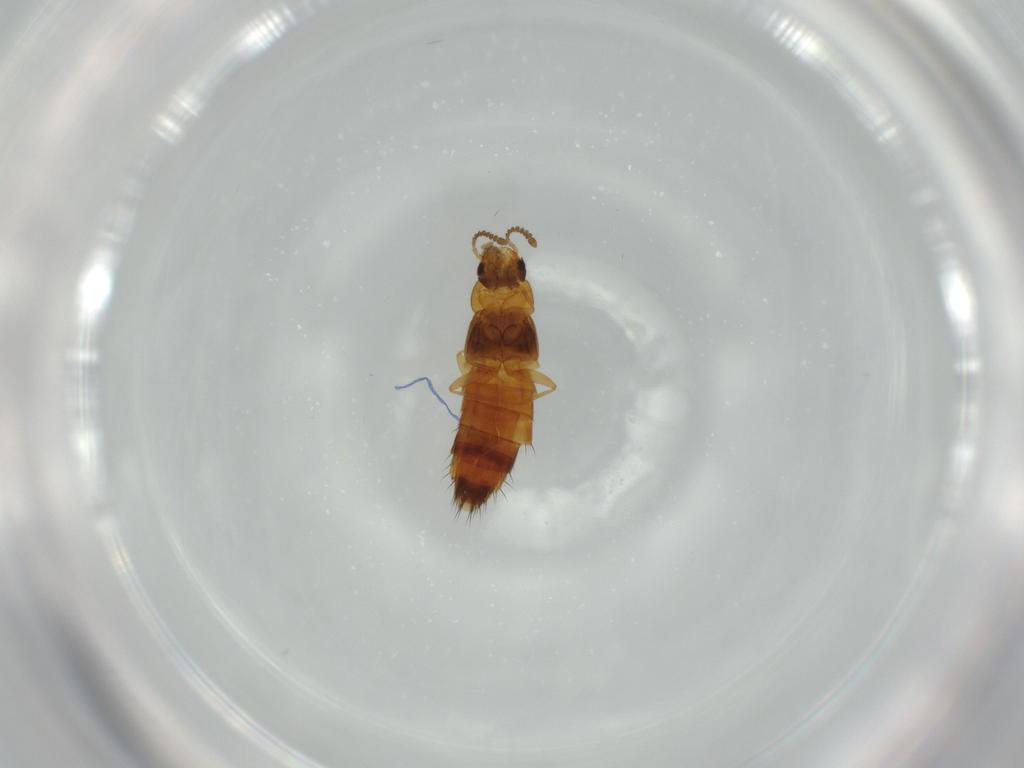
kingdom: Animalia
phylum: Arthropoda
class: Insecta
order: Coleoptera
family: Staphylinidae
